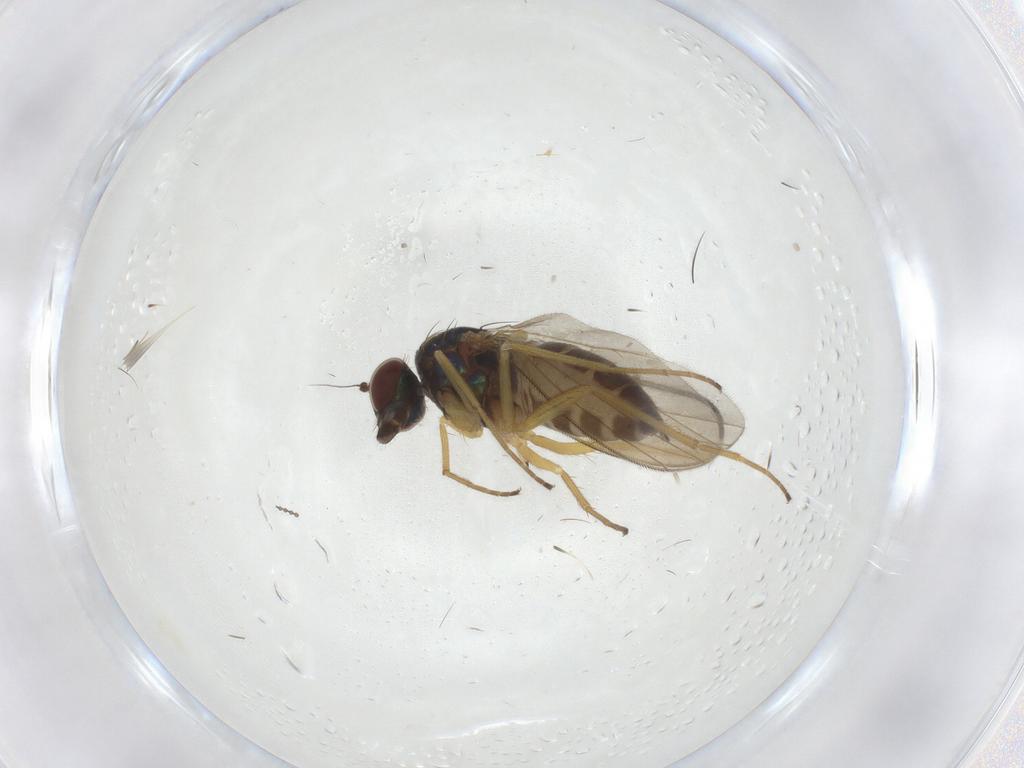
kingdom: Animalia
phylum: Arthropoda
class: Insecta
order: Diptera
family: Dolichopodidae
